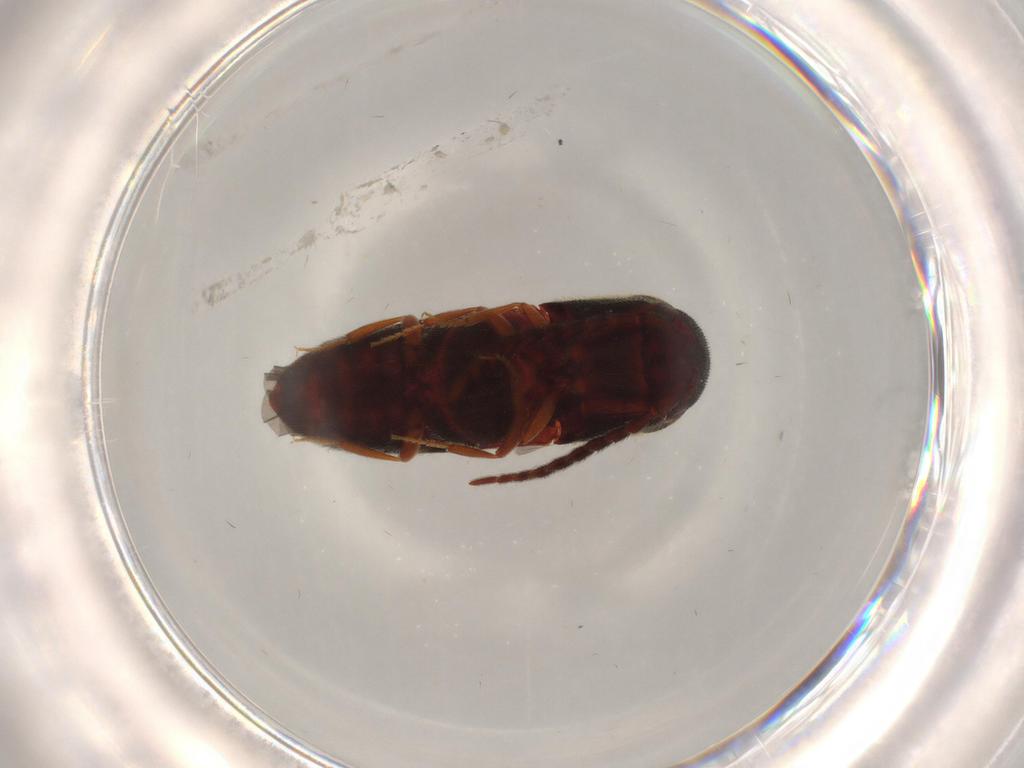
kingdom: Animalia
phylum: Arthropoda
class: Insecta
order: Coleoptera
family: Eucnemidae
